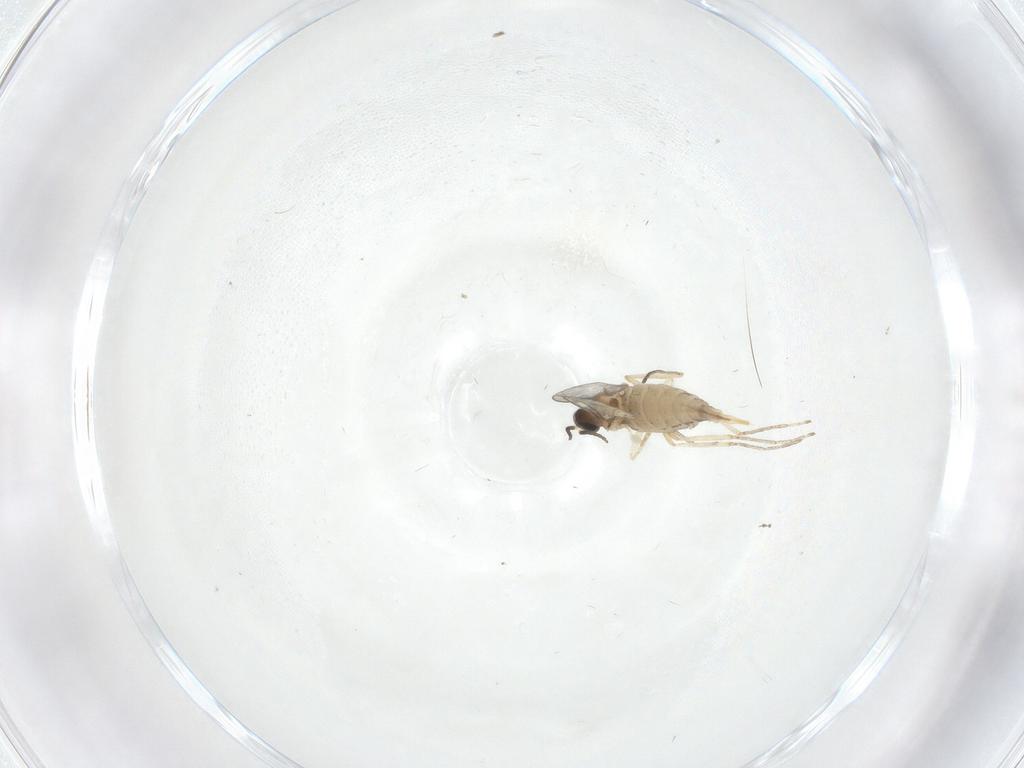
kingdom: Animalia
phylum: Arthropoda
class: Insecta
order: Diptera
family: Cecidomyiidae
